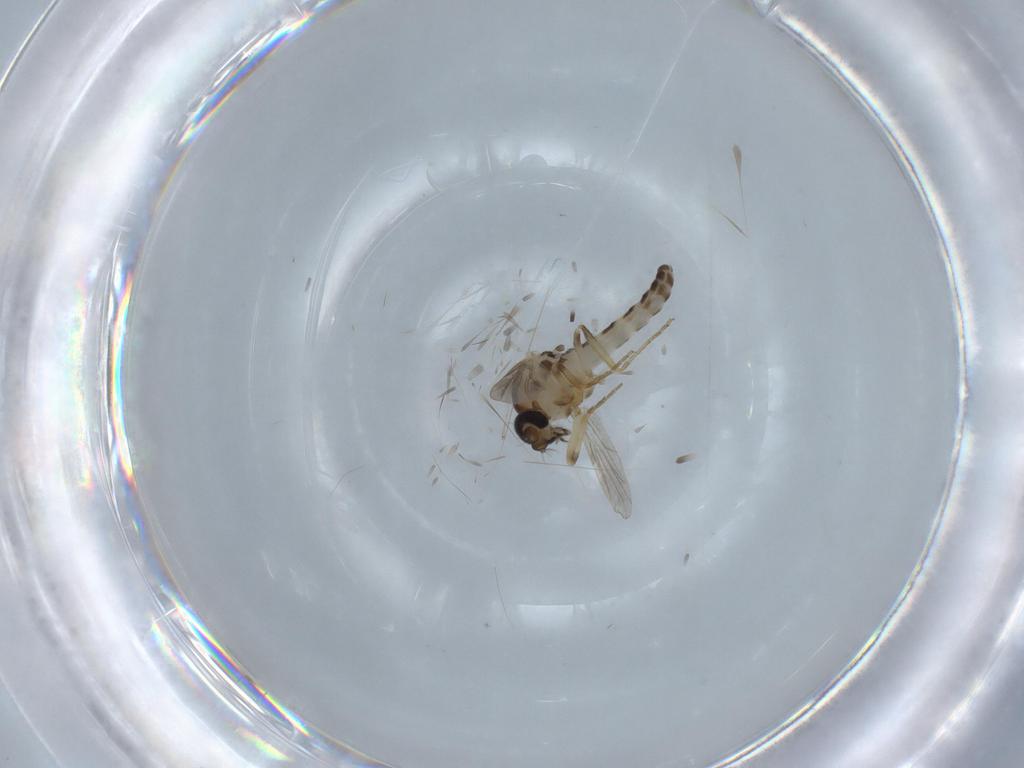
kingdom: Animalia
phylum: Arthropoda
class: Insecta
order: Diptera
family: Ceratopogonidae
